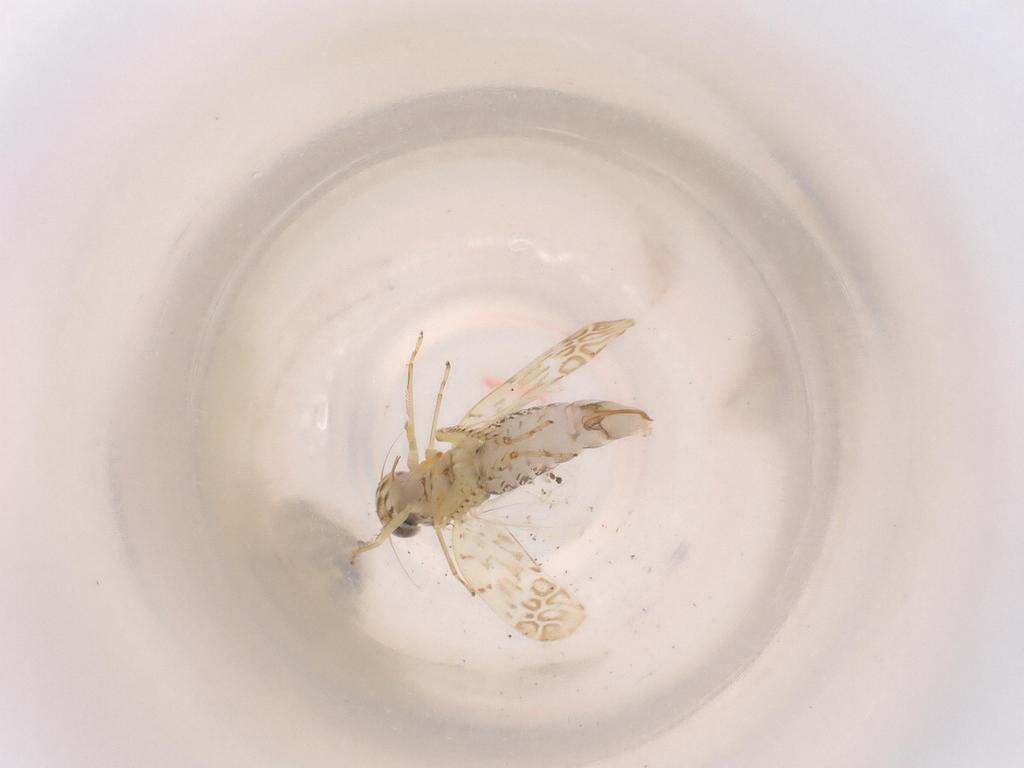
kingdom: Animalia
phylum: Arthropoda
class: Insecta
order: Hemiptera
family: Cicadellidae
